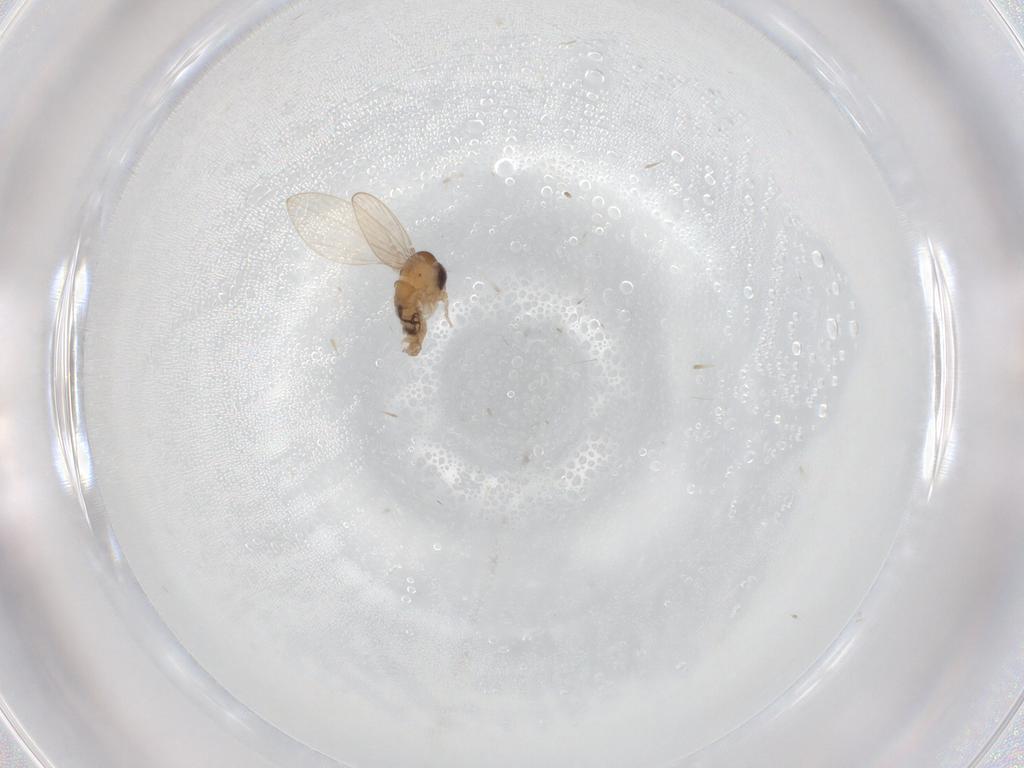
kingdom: Animalia
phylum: Arthropoda
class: Insecta
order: Diptera
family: Psychodidae
